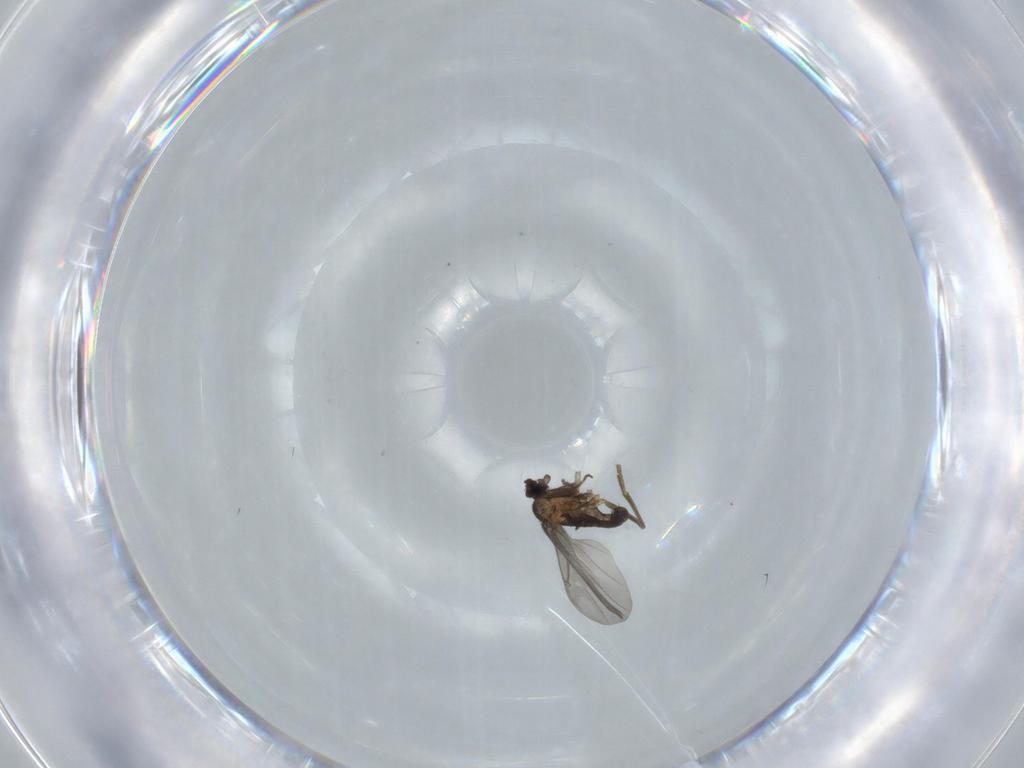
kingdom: Animalia
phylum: Arthropoda
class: Insecta
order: Diptera
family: Phoridae
